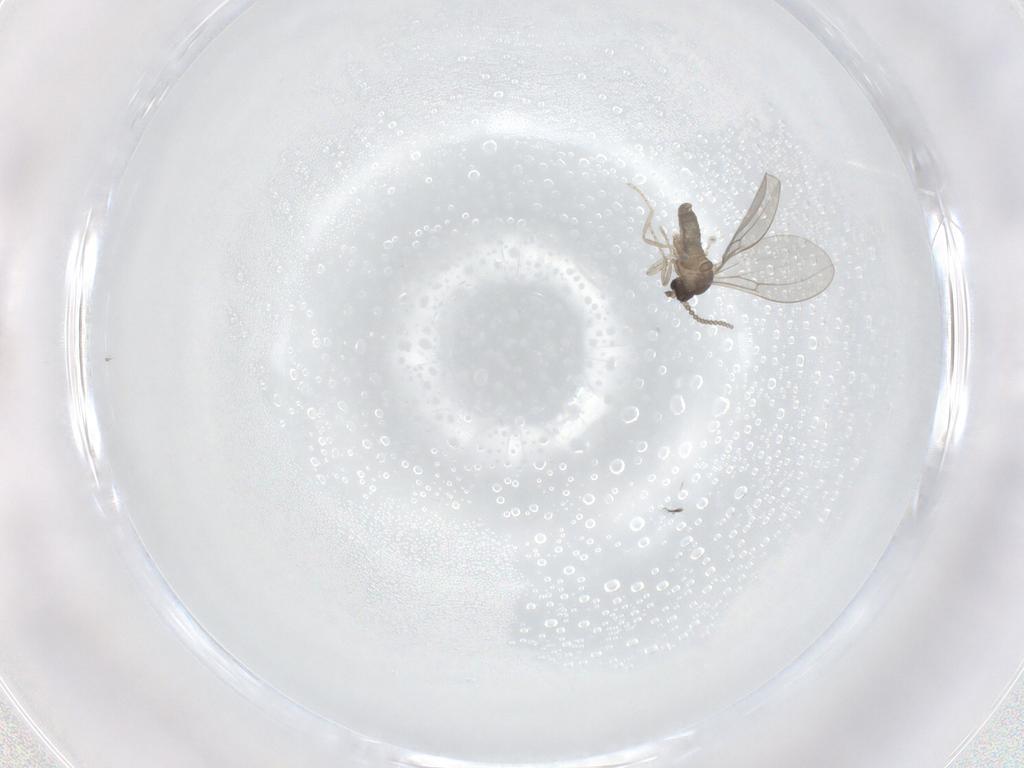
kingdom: Animalia
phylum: Arthropoda
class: Insecta
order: Diptera
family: Cecidomyiidae
